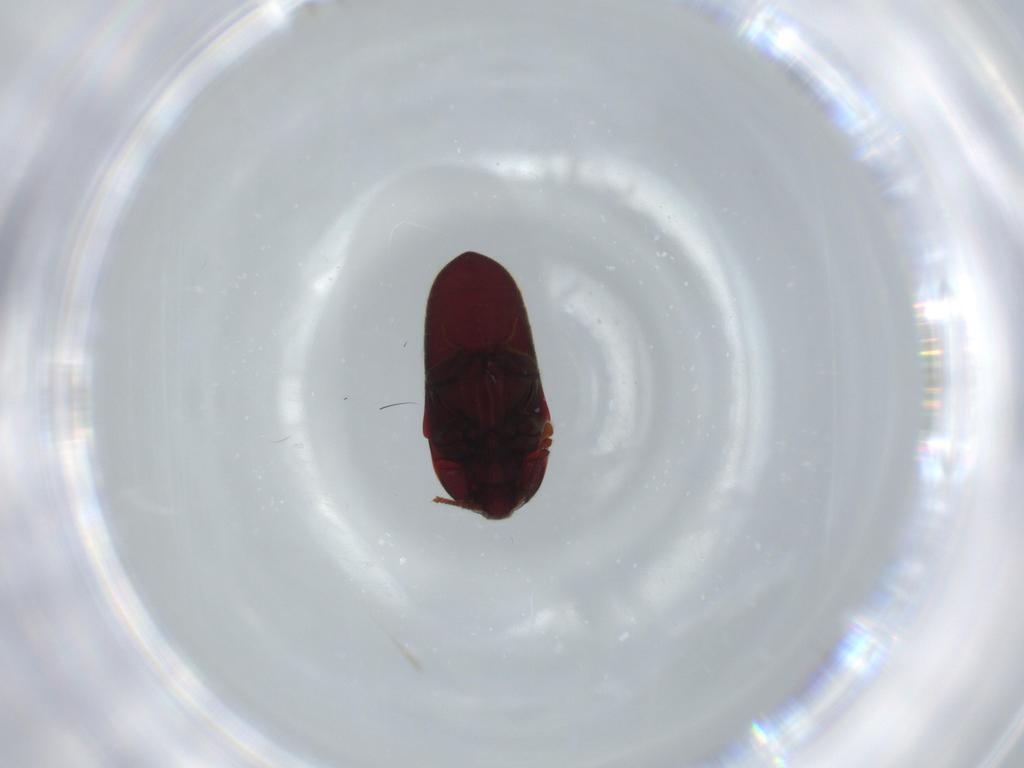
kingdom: Animalia
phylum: Arthropoda
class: Insecta
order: Coleoptera
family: Throscidae
